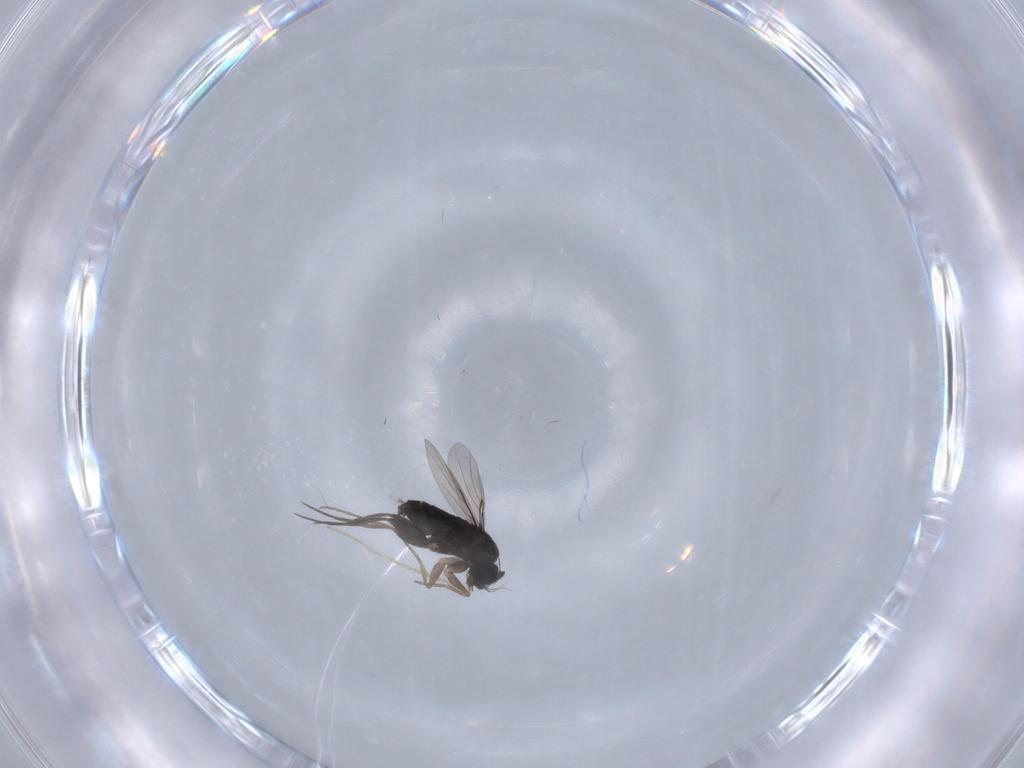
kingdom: Animalia
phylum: Arthropoda
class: Insecta
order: Diptera
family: Phoridae
